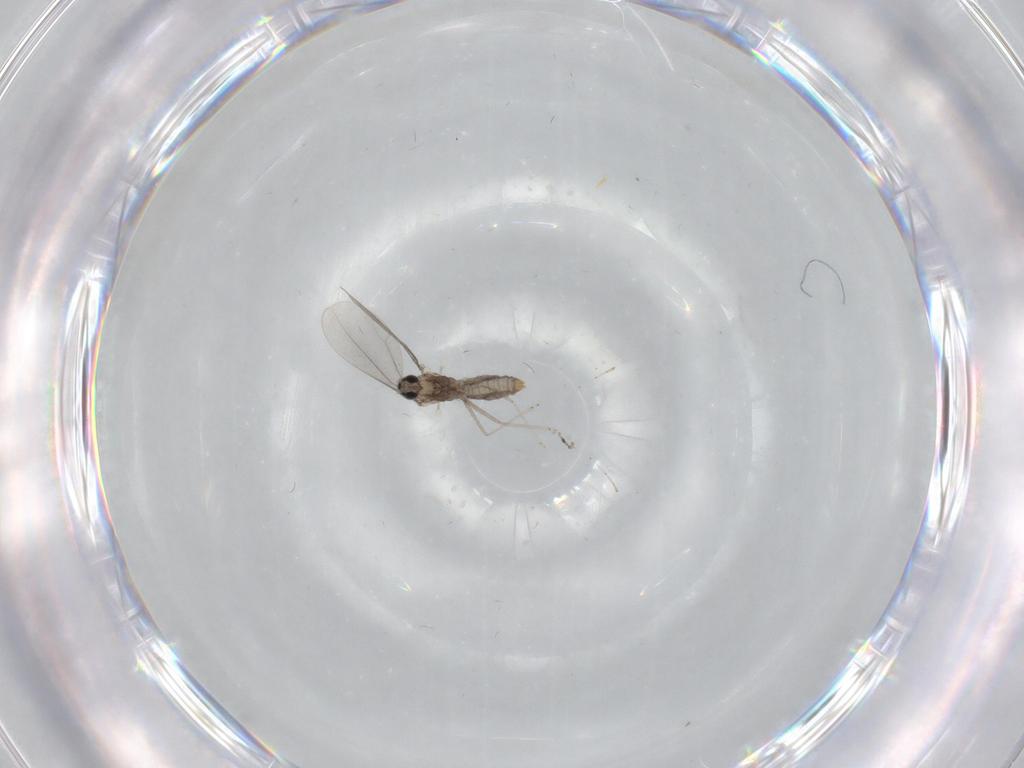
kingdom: Animalia
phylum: Arthropoda
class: Insecta
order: Diptera
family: Cecidomyiidae
